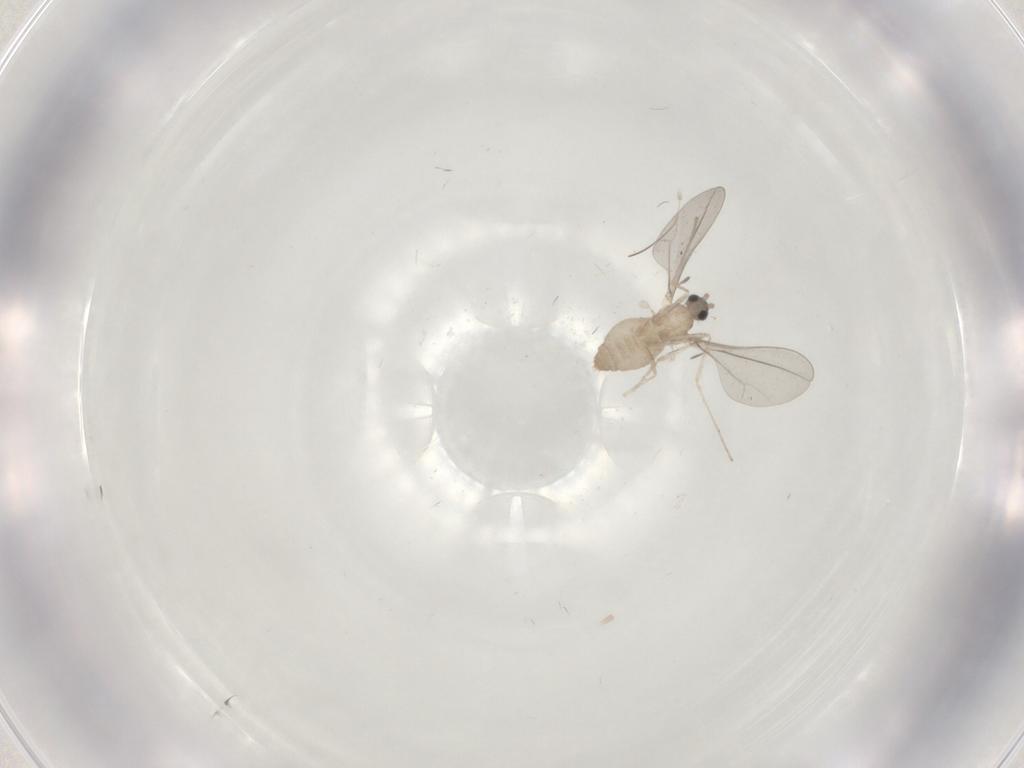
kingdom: Animalia
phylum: Arthropoda
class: Insecta
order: Diptera
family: Cecidomyiidae
